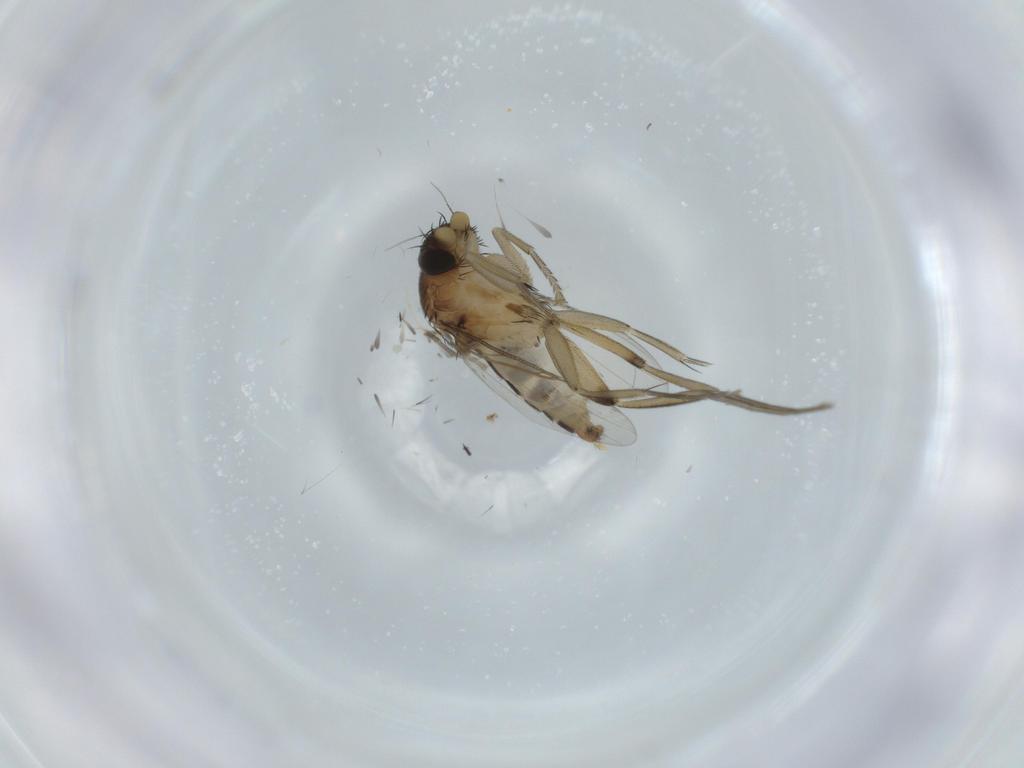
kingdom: Animalia
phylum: Arthropoda
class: Insecta
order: Diptera
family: Phoridae
